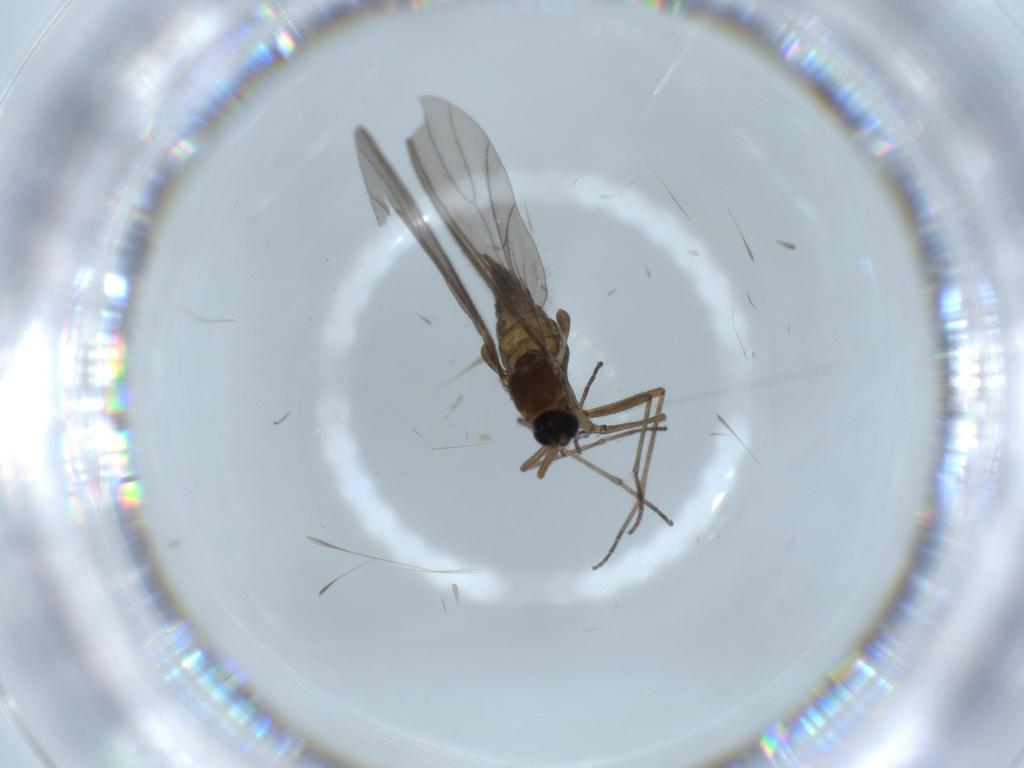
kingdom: Animalia
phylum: Arthropoda
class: Insecta
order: Diptera
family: Sciaridae
